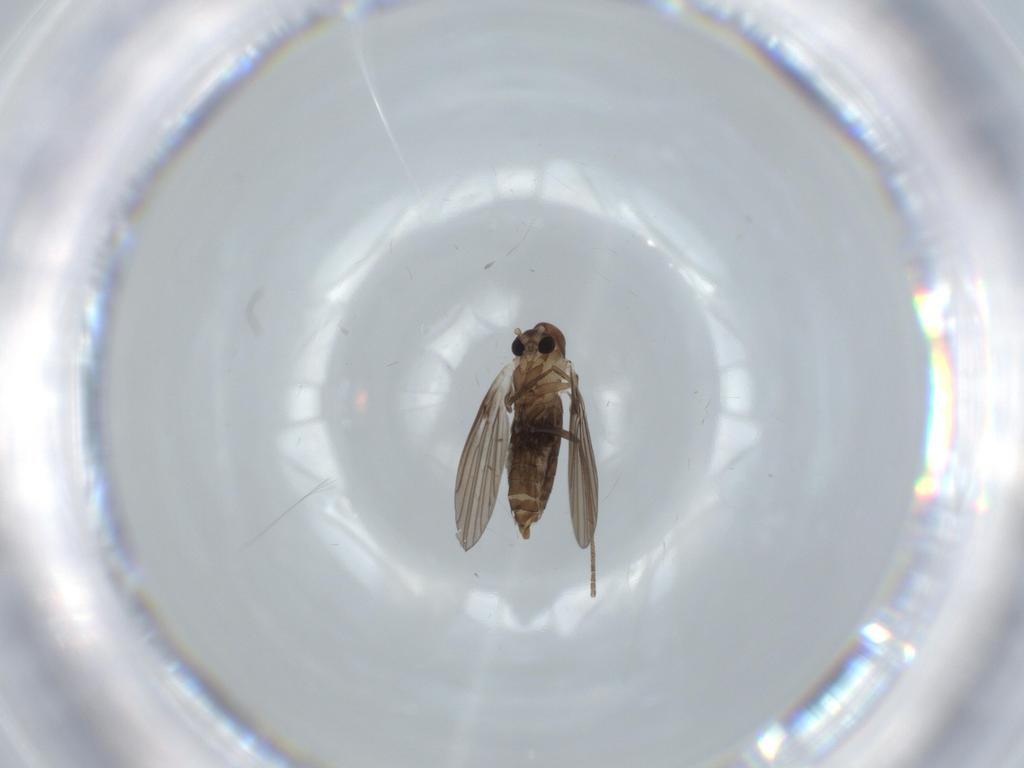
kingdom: Animalia
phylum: Arthropoda
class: Insecta
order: Diptera
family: Psychodidae
